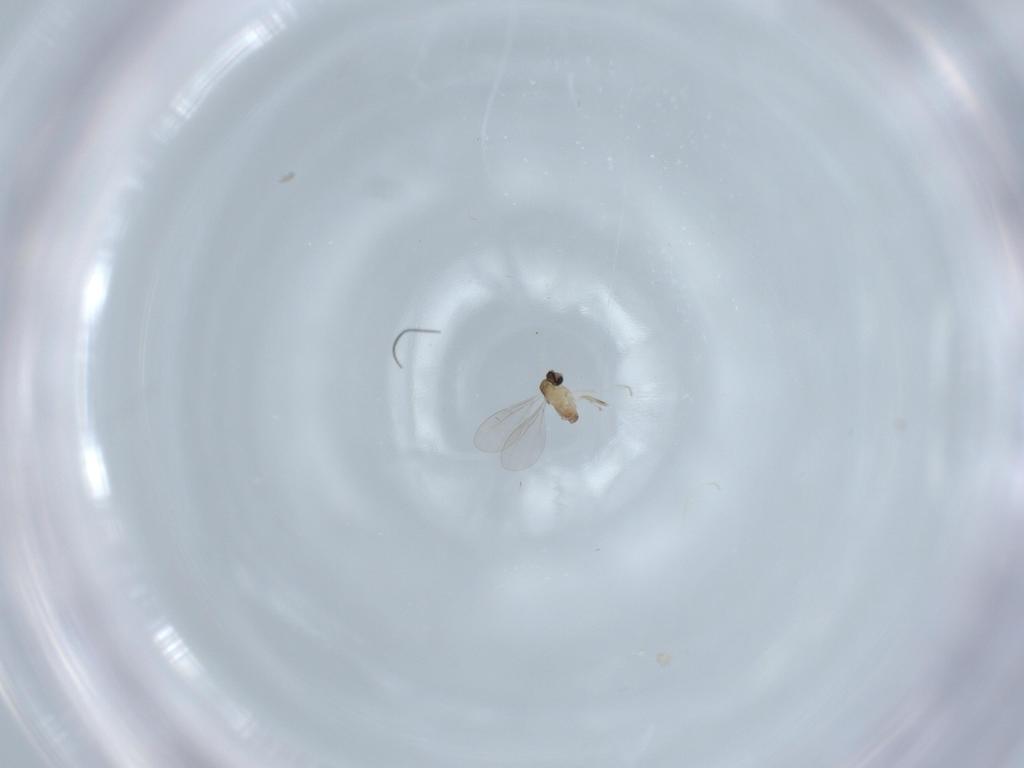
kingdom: Animalia
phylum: Arthropoda
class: Insecta
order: Diptera
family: Cecidomyiidae
